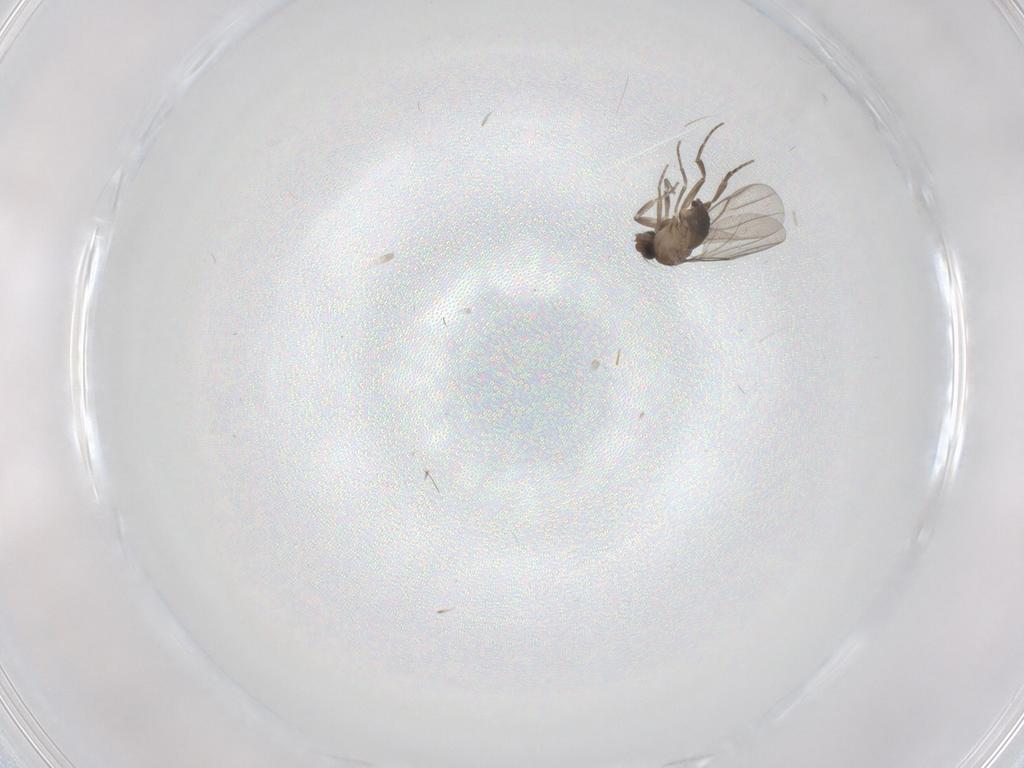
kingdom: Animalia
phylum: Arthropoda
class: Insecta
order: Diptera
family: Phoridae
